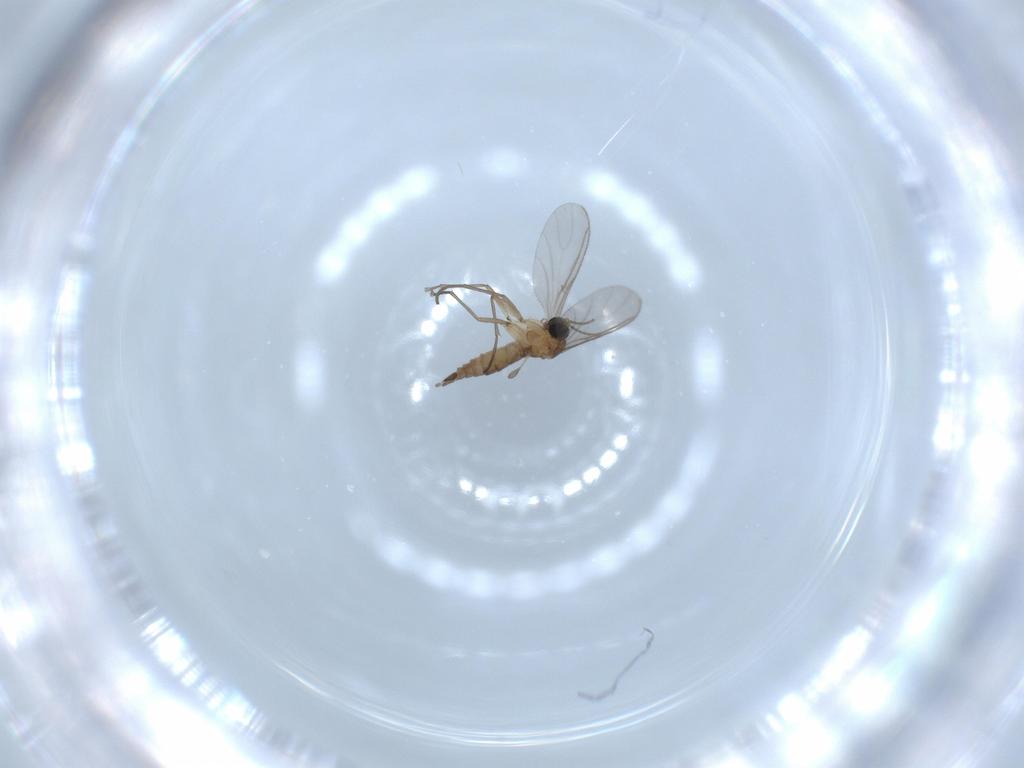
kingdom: Animalia
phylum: Arthropoda
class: Insecta
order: Diptera
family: Sciaridae
